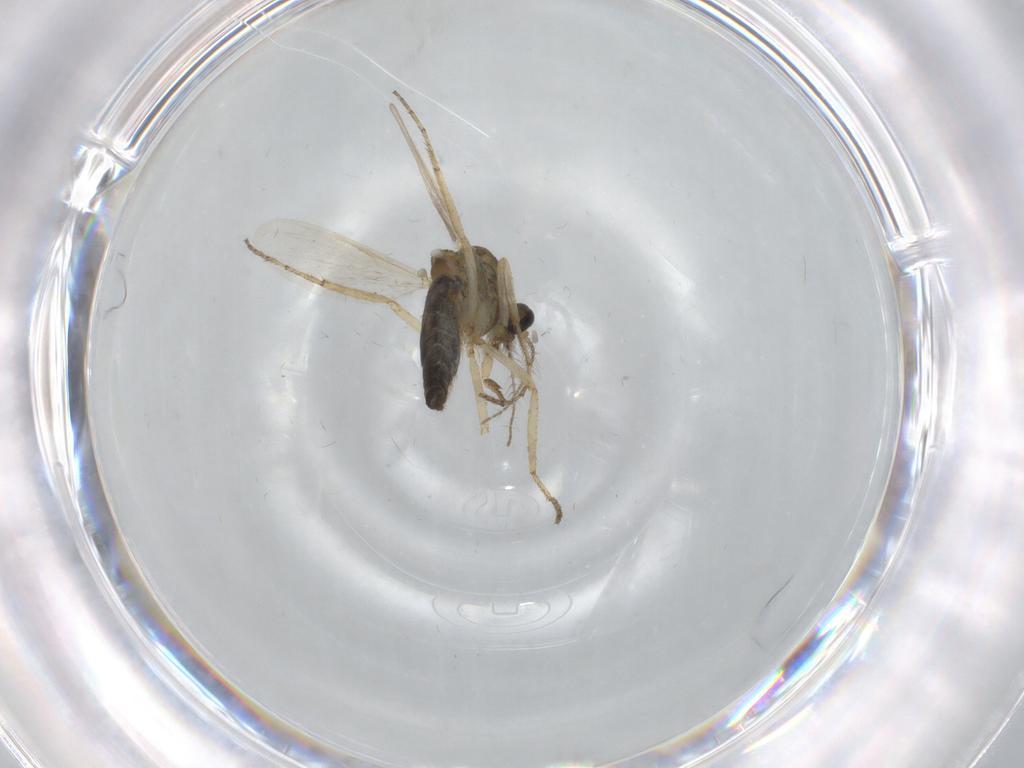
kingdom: Animalia
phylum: Arthropoda
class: Insecta
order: Diptera
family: Ceratopogonidae
